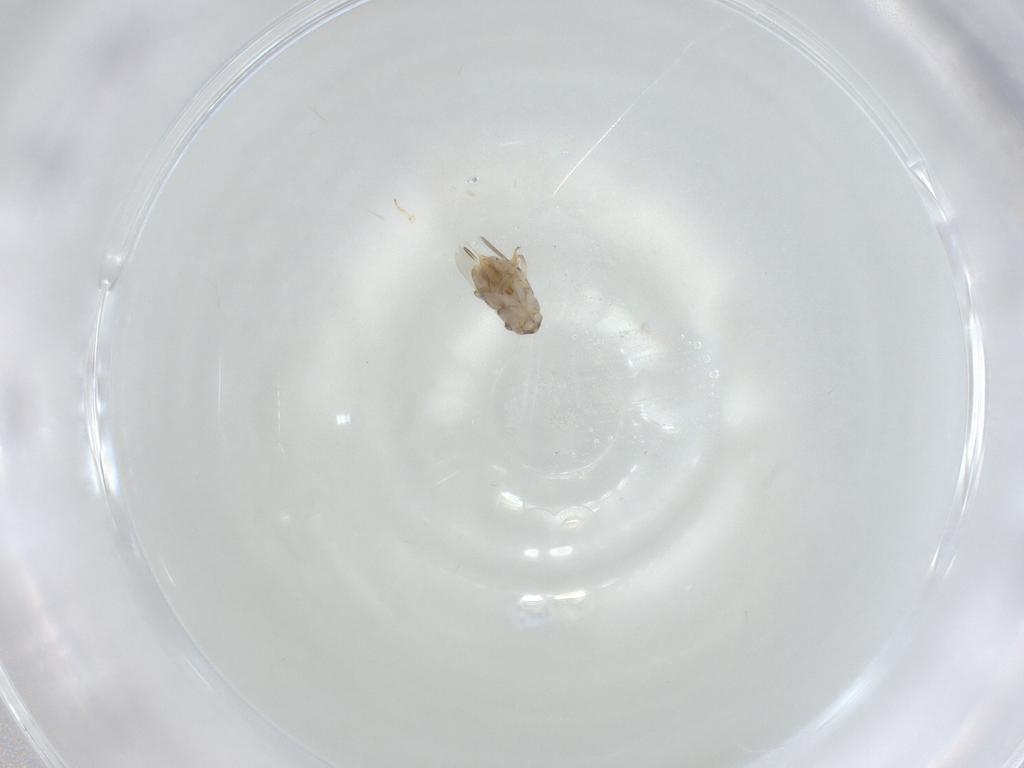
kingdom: Animalia
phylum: Arthropoda
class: Insecta
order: Hymenoptera
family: Encyrtidae
